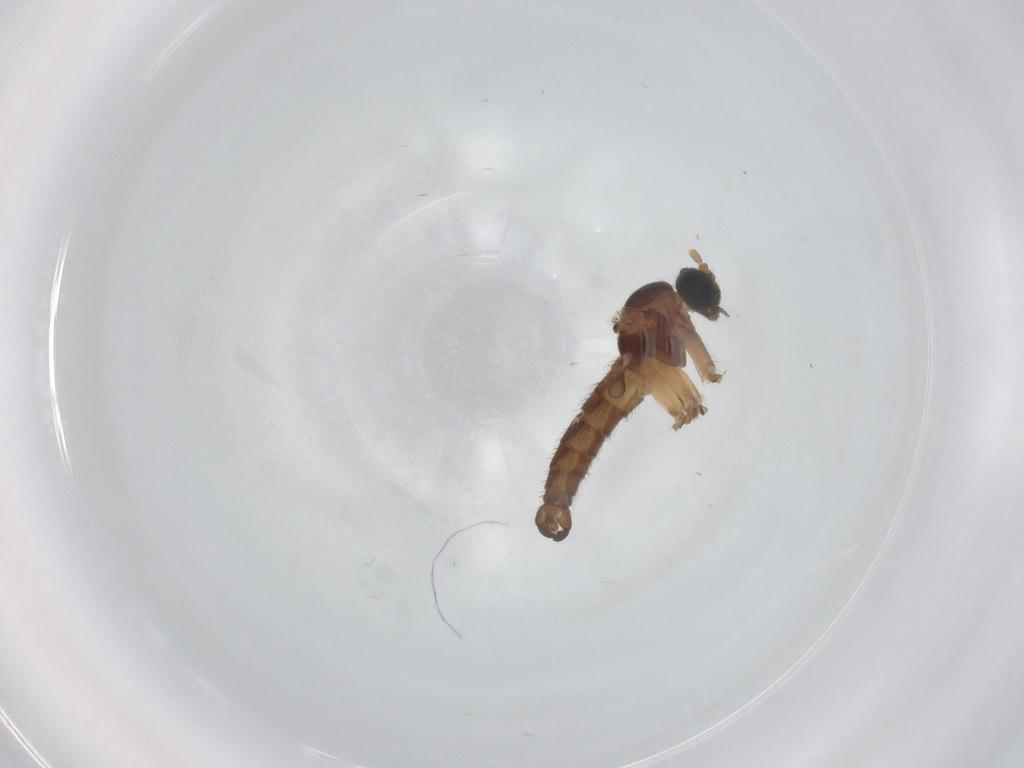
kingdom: Animalia
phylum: Arthropoda
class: Insecta
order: Diptera
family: Sciaridae
